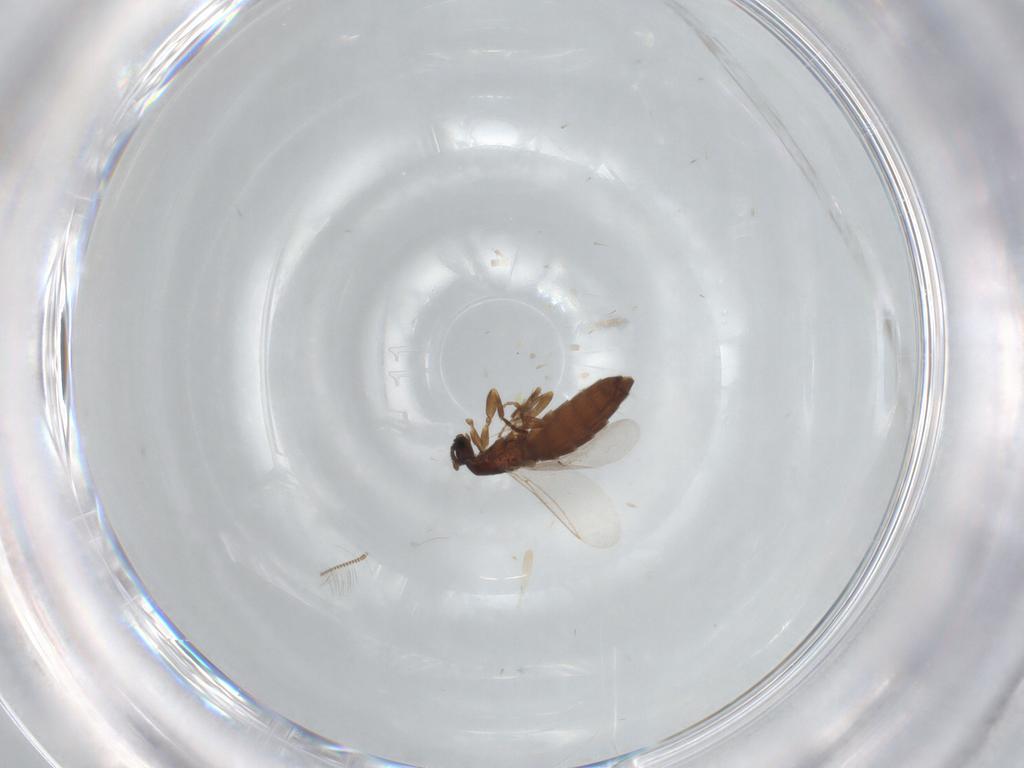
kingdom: Animalia
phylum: Arthropoda
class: Insecta
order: Diptera
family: Scatopsidae
